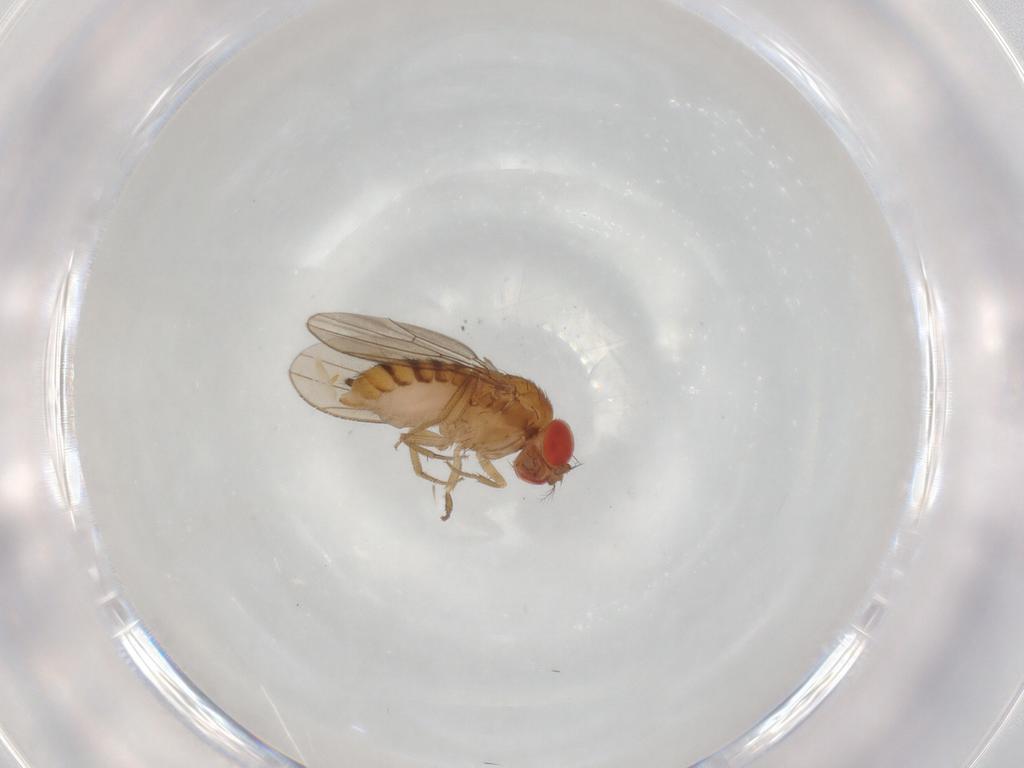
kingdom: Animalia
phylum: Arthropoda
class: Insecta
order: Diptera
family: Drosophilidae
